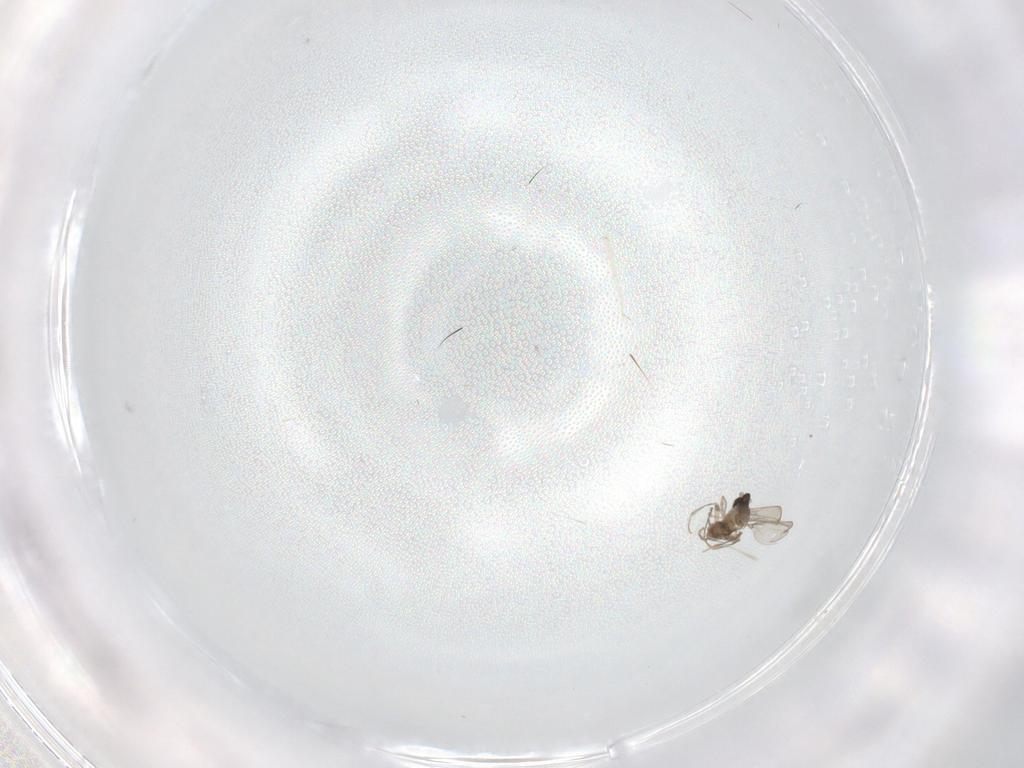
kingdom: Animalia
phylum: Arthropoda
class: Insecta
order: Diptera
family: Cecidomyiidae
